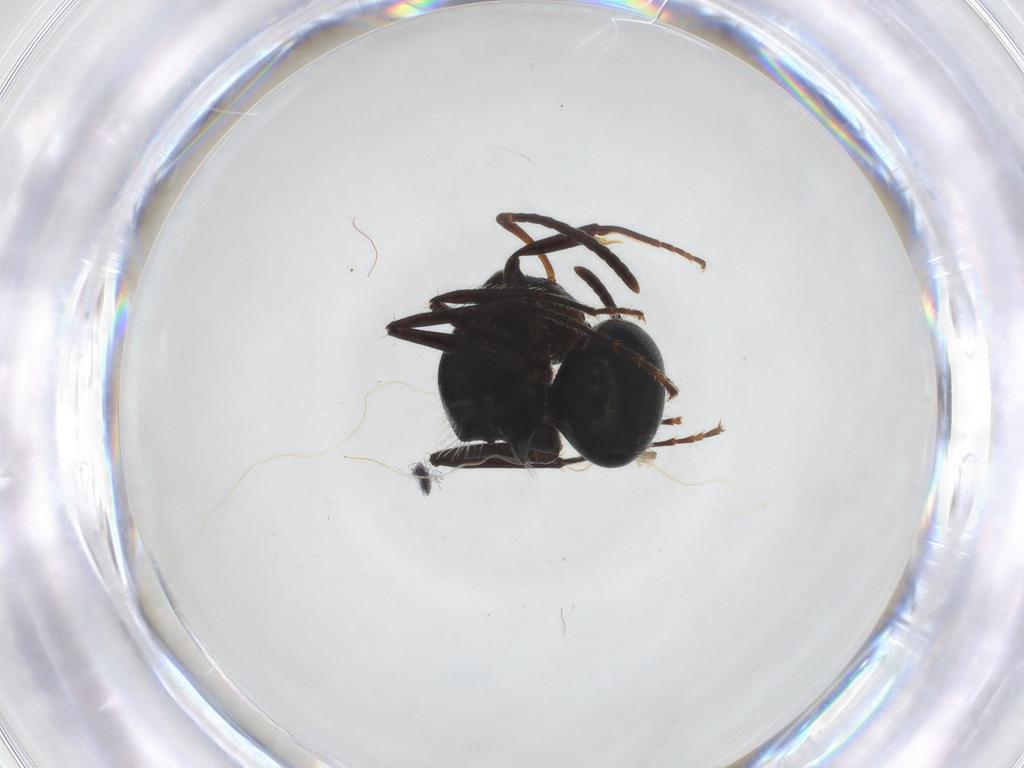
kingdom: Animalia
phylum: Arthropoda
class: Insecta
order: Hymenoptera
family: Formicidae
